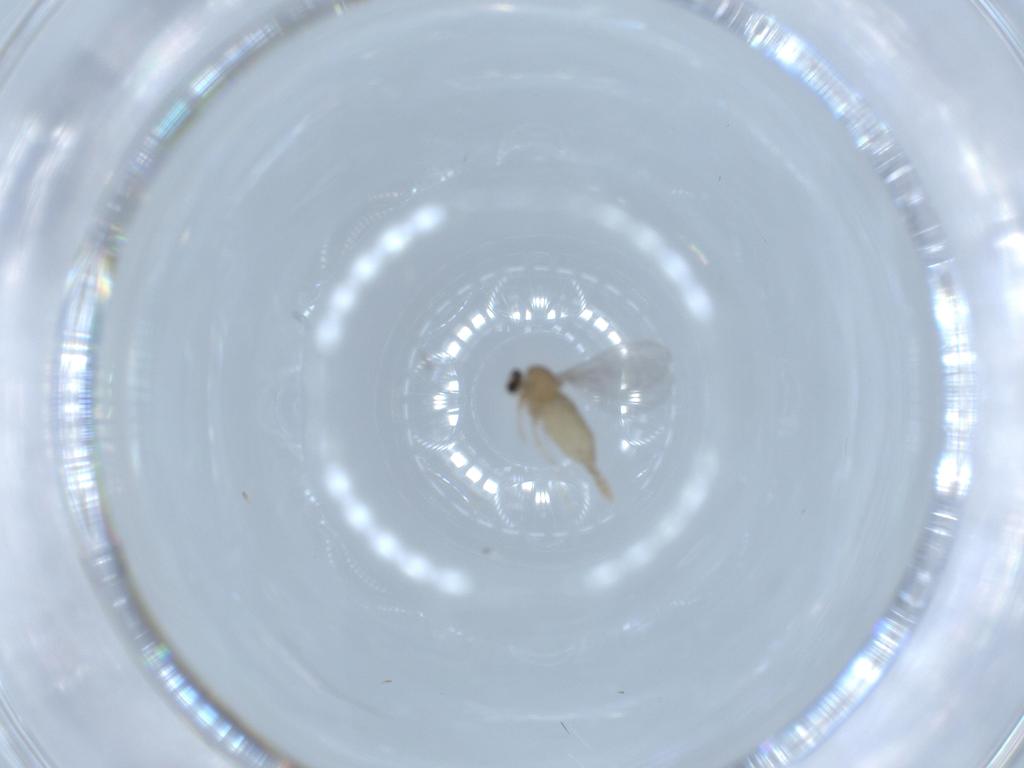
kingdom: Animalia
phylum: Arthropoda
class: Insecta
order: Diptera
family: Cecidomyiidae
